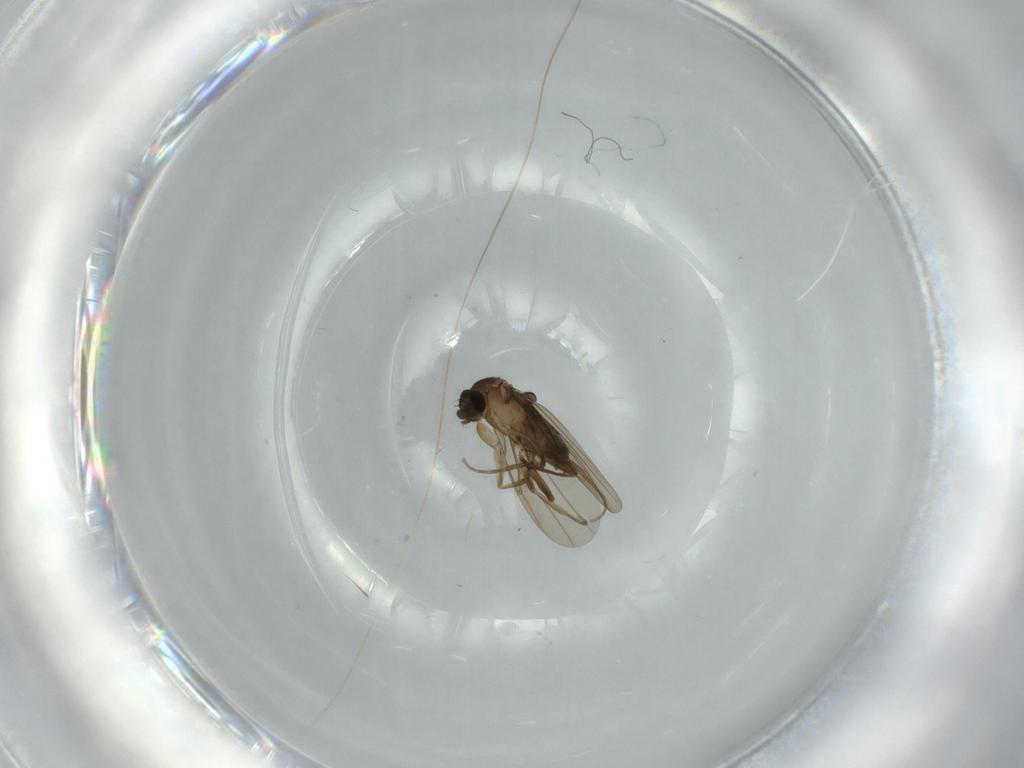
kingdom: Animalia
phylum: Arthropoda
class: Insecta
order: Diptera
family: Phoridae
